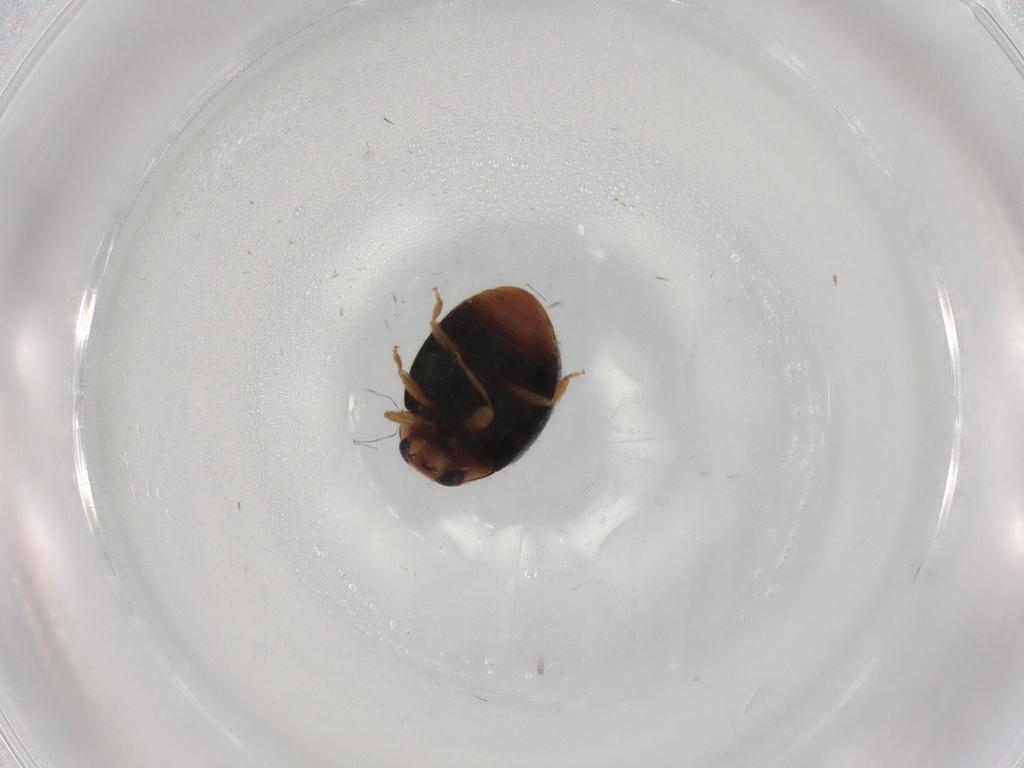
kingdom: Animalia
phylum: Arthropoda
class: Insecta
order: Coleoptera
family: Coccinellidae
